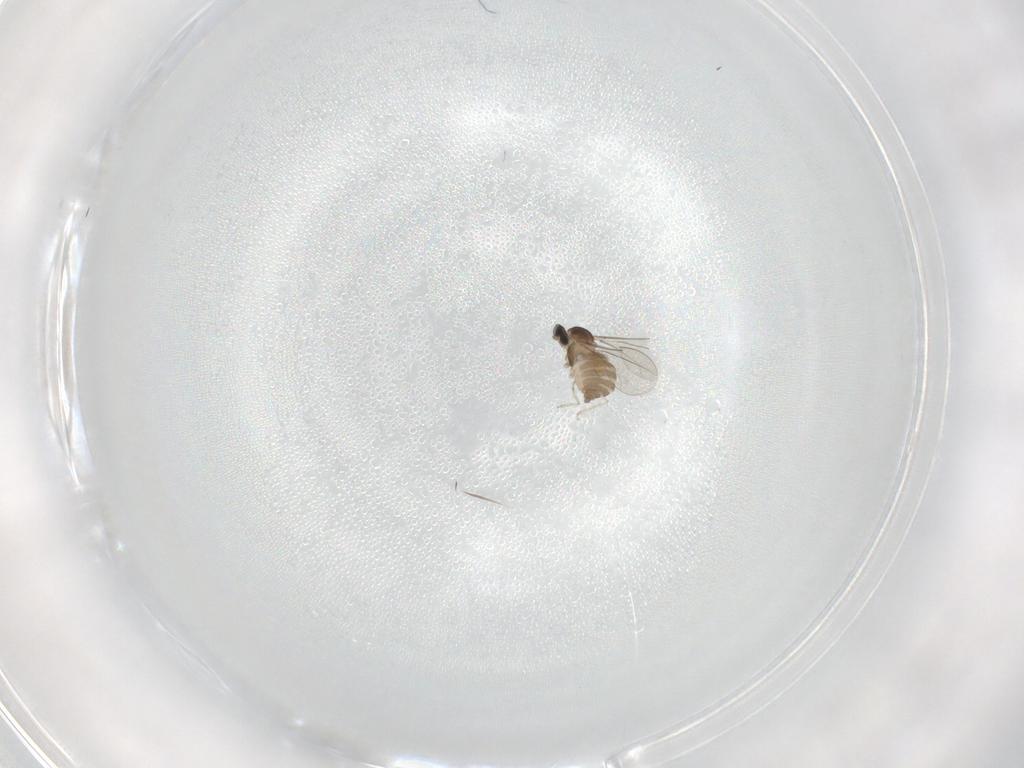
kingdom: Animalia
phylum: Arthropoda
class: Insecta
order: Diptera
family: Cecidomyiidae
